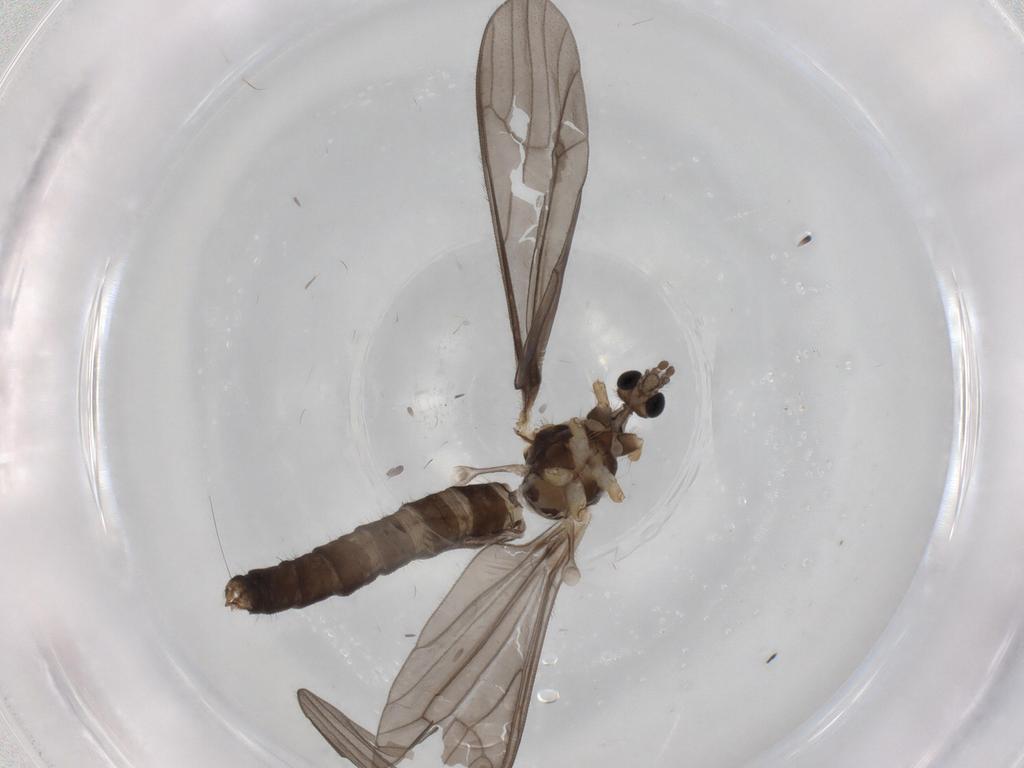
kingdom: Animalia
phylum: Arthropoda
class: Insecta
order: Diptera
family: Limoniidae
